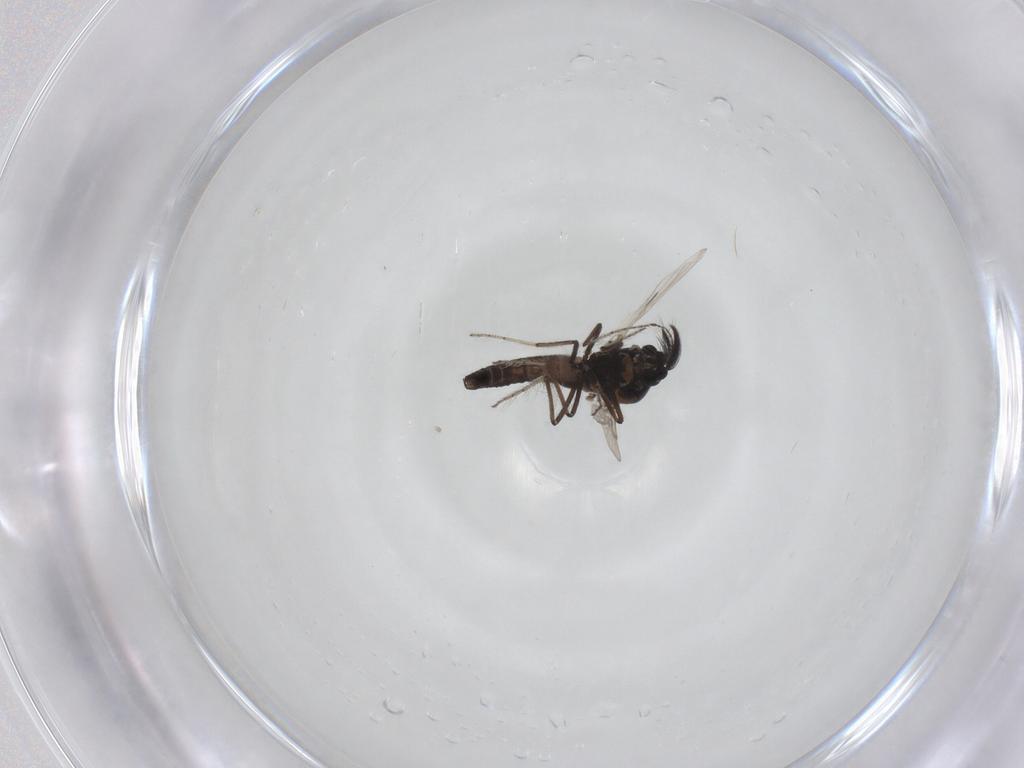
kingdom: Animalia
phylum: Arthropoda
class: Insecta
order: Diptera
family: Ceratopogonidae
